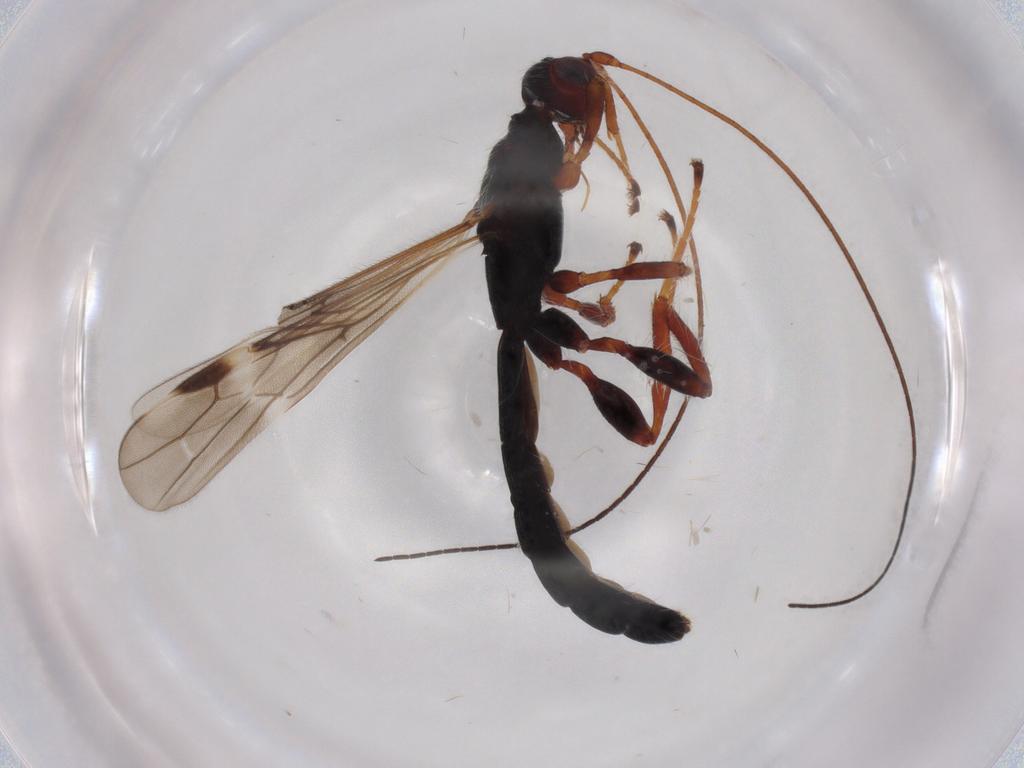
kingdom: Animalia
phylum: Arthropoda
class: Insecta
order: Hymenoptera
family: Braconidae
